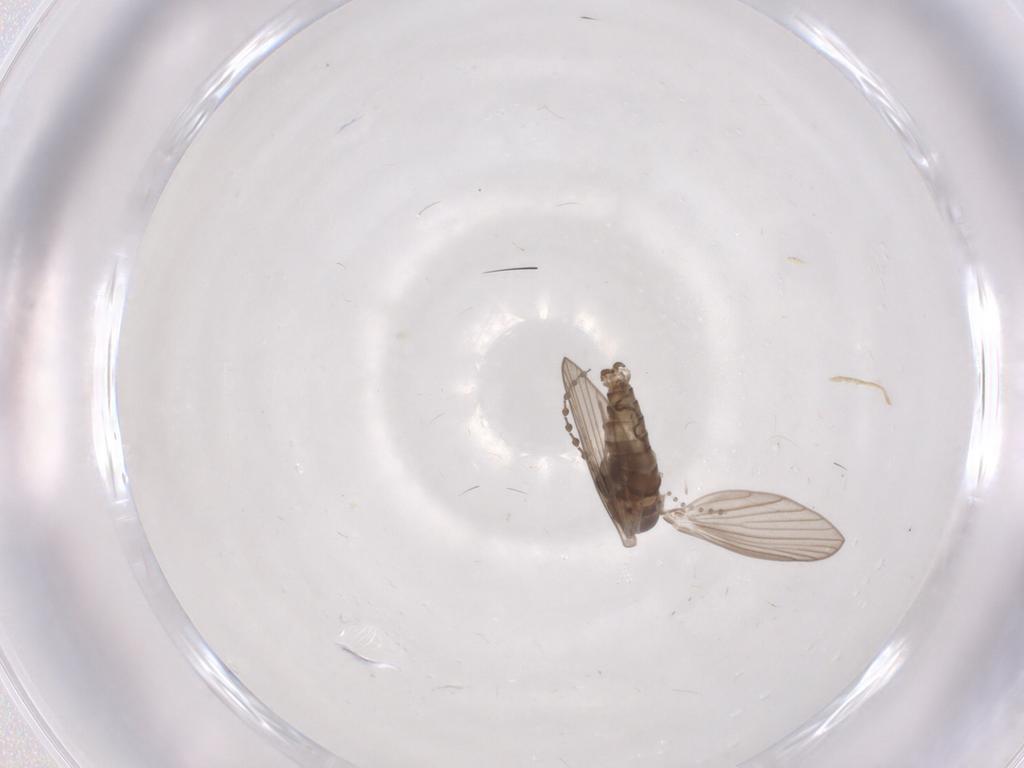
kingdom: Animalia
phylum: Arthropoda
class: Insecta
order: Diptera
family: Psychodidae
